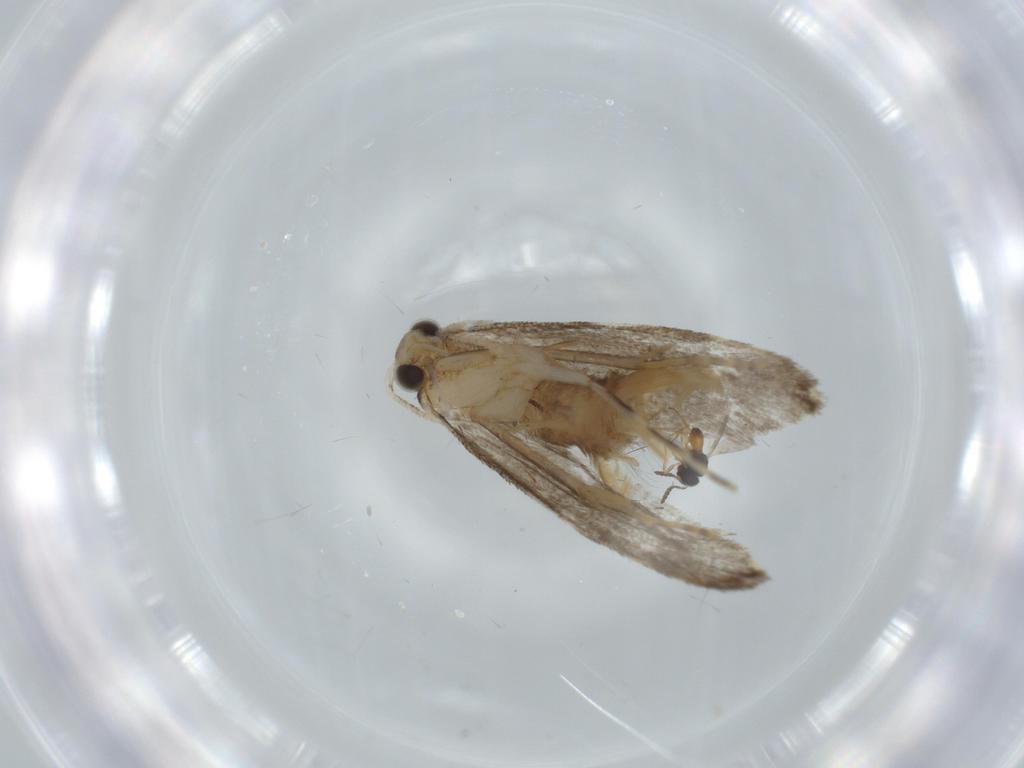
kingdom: Animalia
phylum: Arthropoda
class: Insecta
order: Lepidoptera
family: Tineidae
